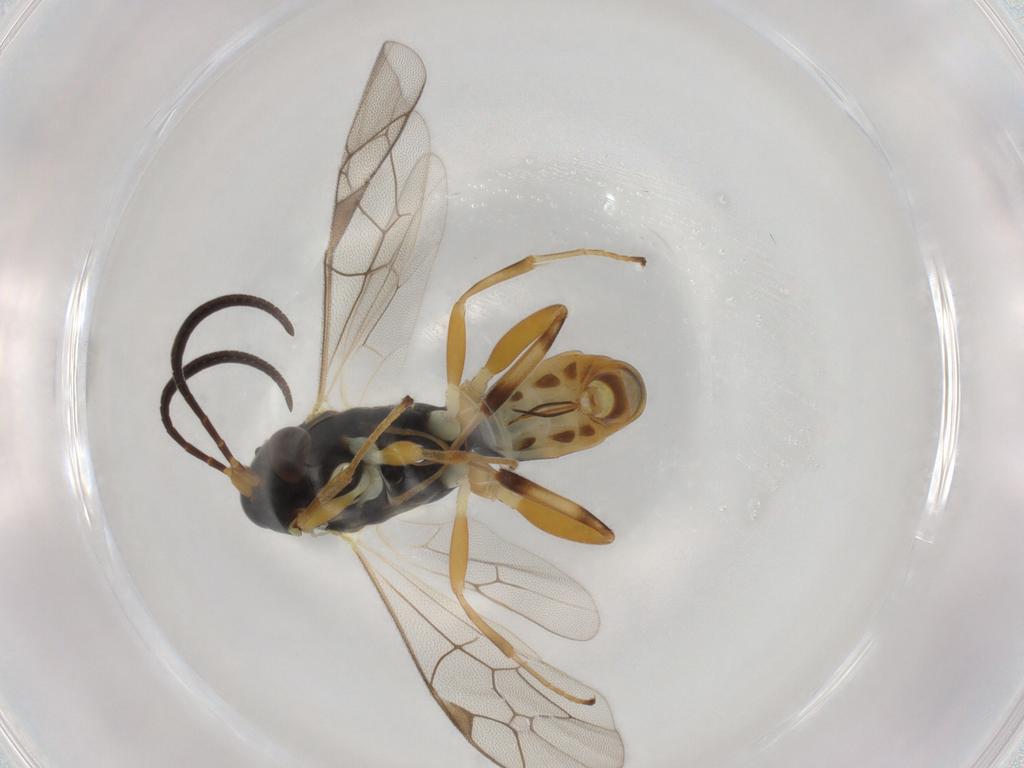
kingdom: Animalia
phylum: Arthropoda
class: Insecta
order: Hymenoptera
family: Ichneumonidae
